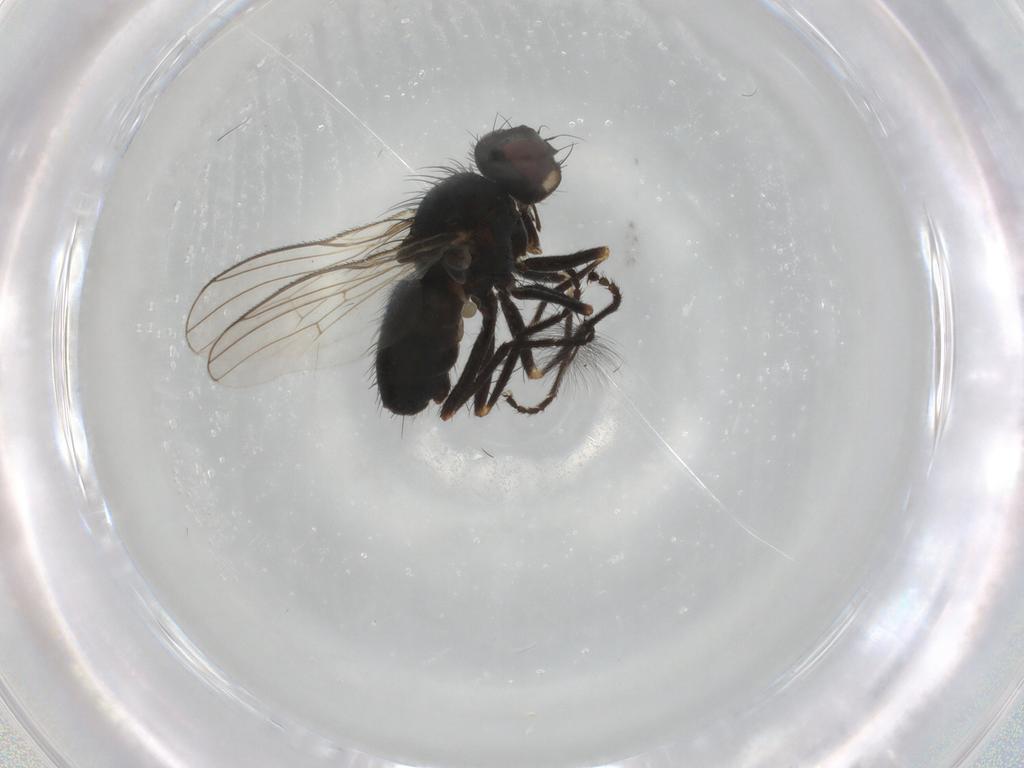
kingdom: Animalia
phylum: Arthropoda
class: Insecta
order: Diptera
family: Muscidae
